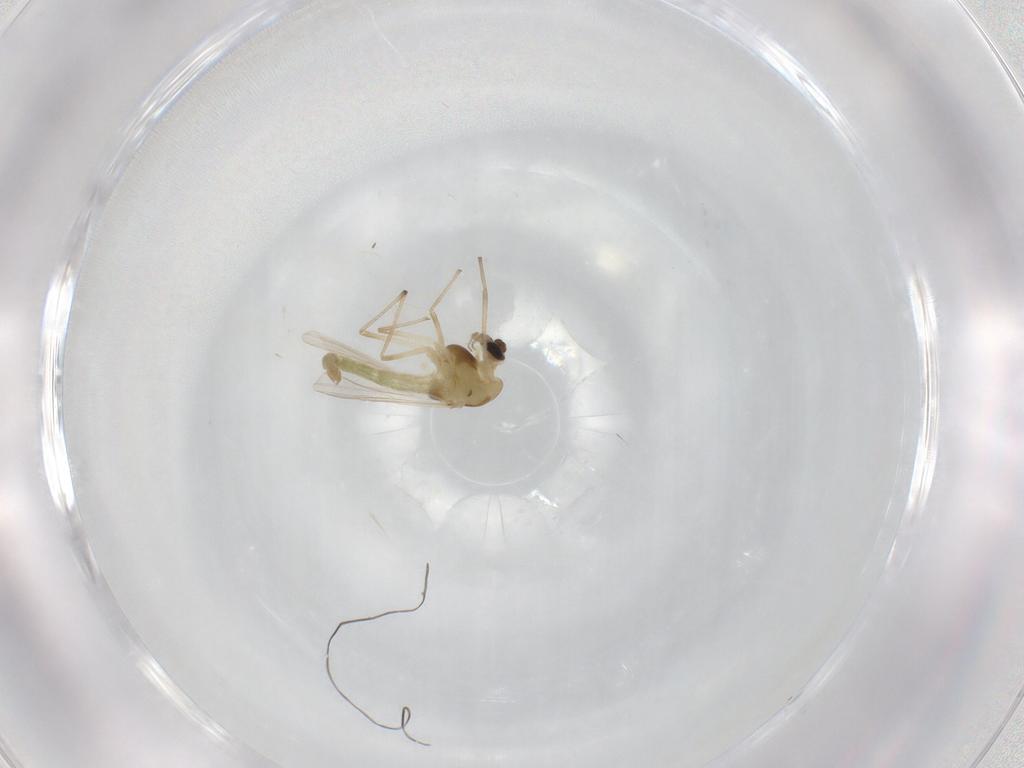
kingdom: Animalia
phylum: Arthropoda
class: Insecta
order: Diptera
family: Chironomidae
